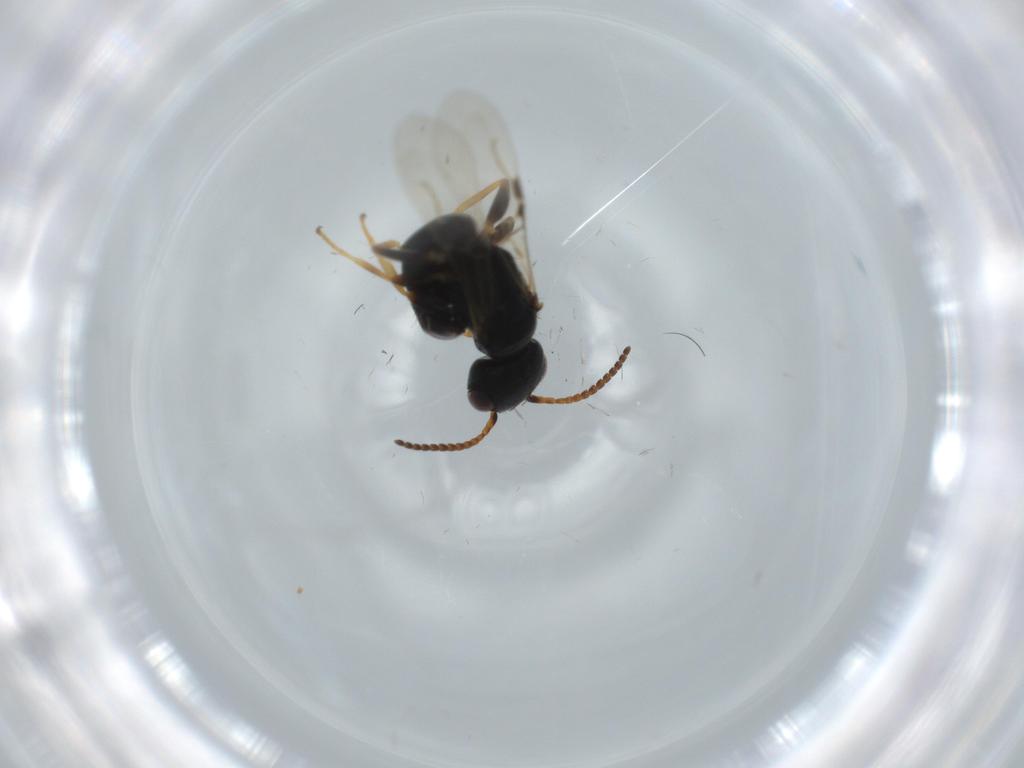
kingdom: Animalia
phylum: Arthropoda
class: Insecta
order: Hymenoptera
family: Bethylidae
